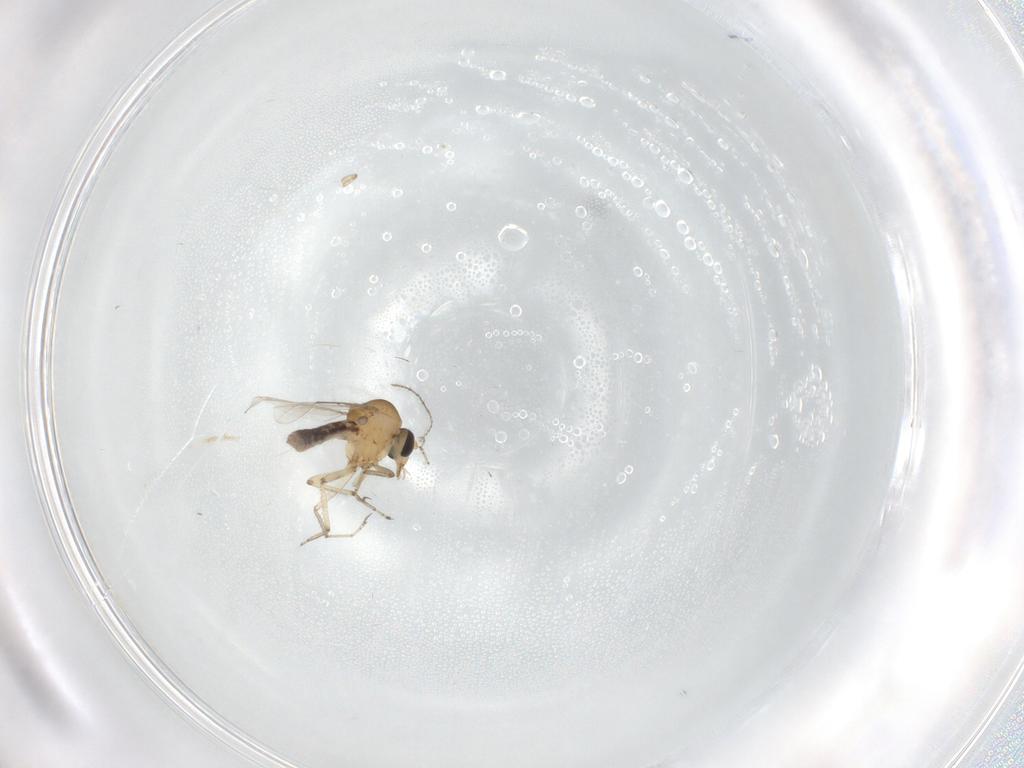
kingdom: Animalia
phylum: Arthropoda
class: Insecta
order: Diptera
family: Ceratopogonidae
